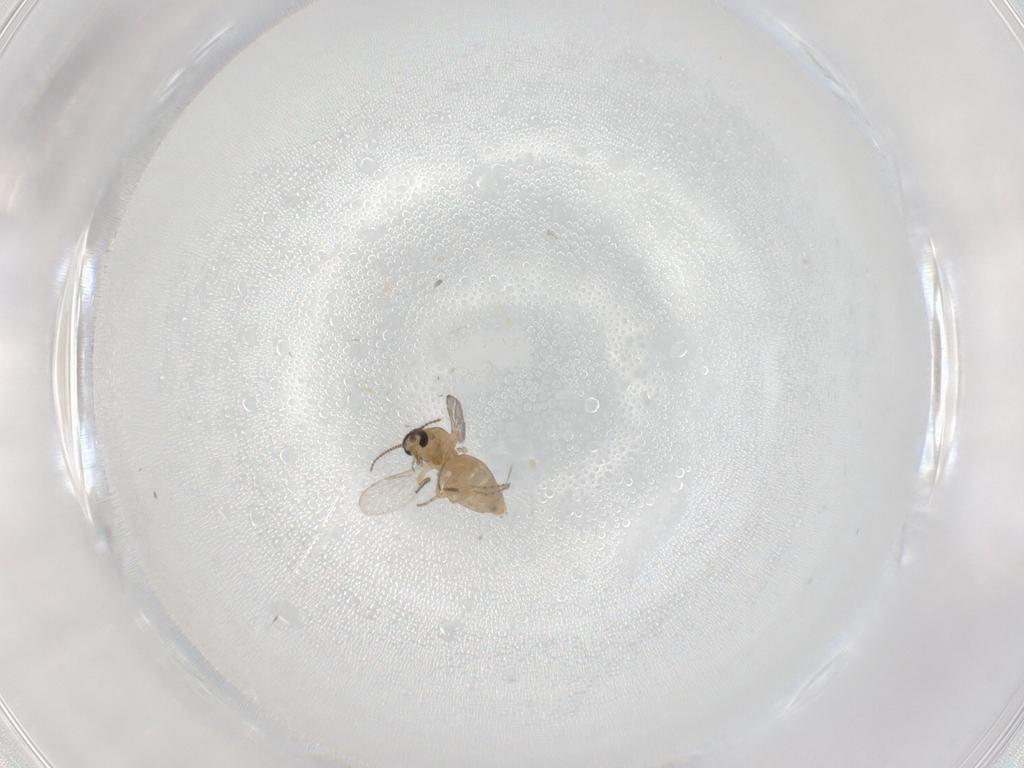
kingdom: Animalia
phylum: Arthropoda
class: Insecta
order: Diptera
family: Ceratopogonidae
